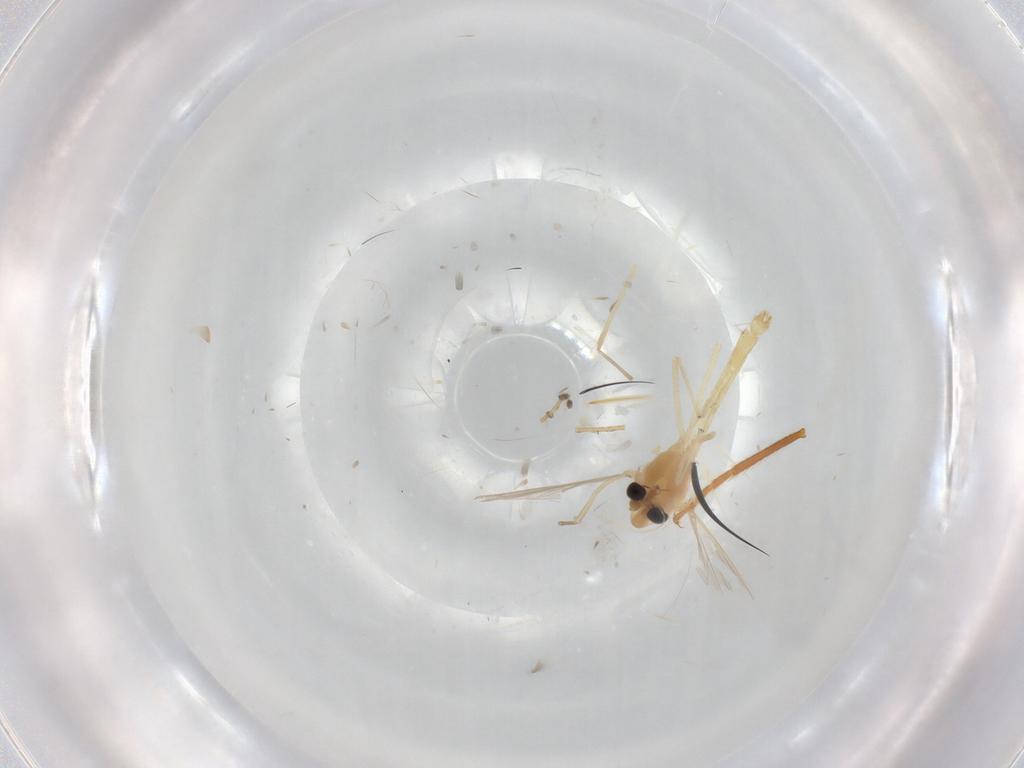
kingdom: Animalia
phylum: Arthropoda
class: Insecta
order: Diptera
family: Chironomidae
